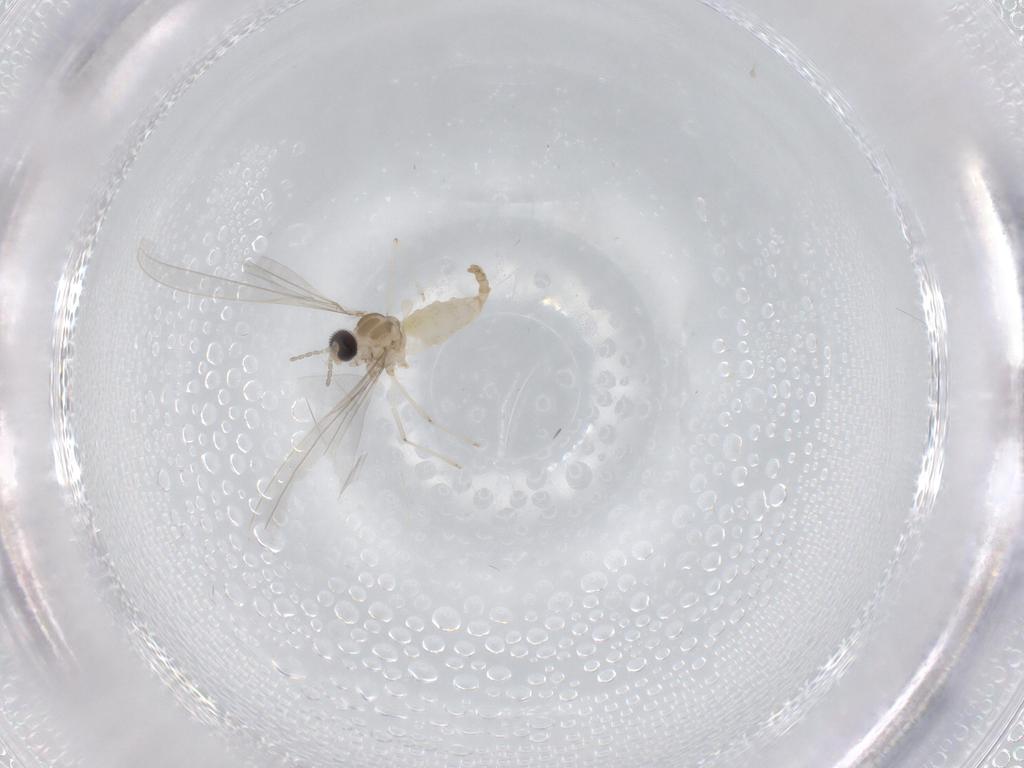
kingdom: Animalia
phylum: Arthropoda
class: Insecta
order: Diptera
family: Cecidomyiidae
